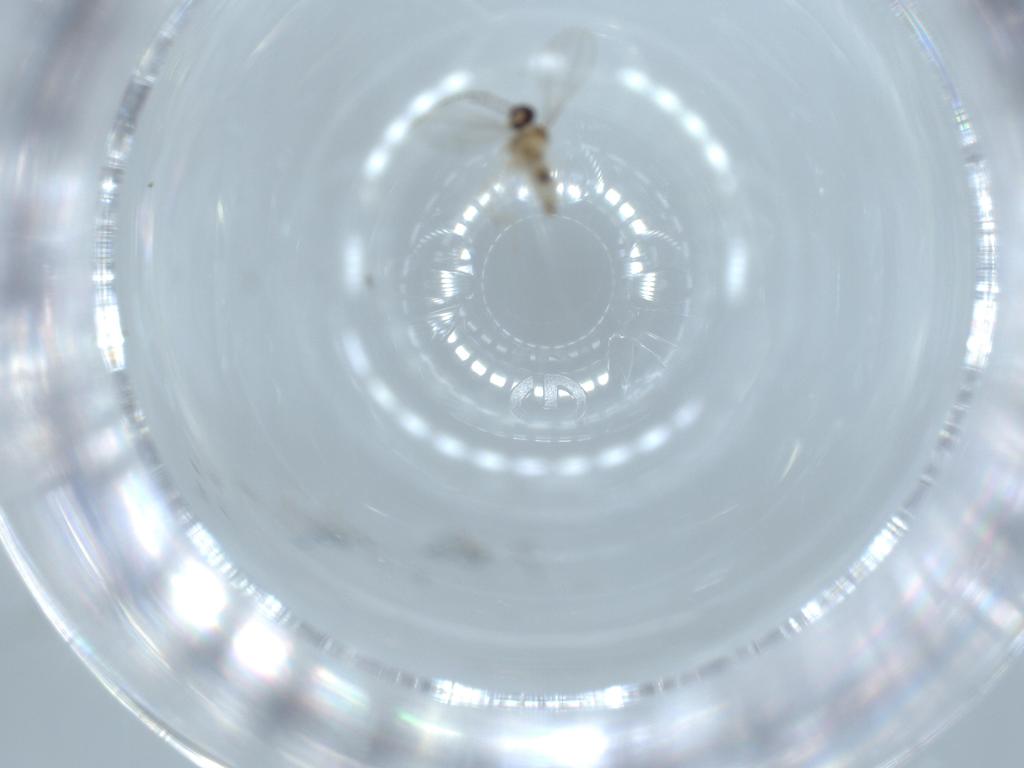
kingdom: Animalia
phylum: Arthropoda
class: Insecta
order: Diptera
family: Cecidomyiidae
